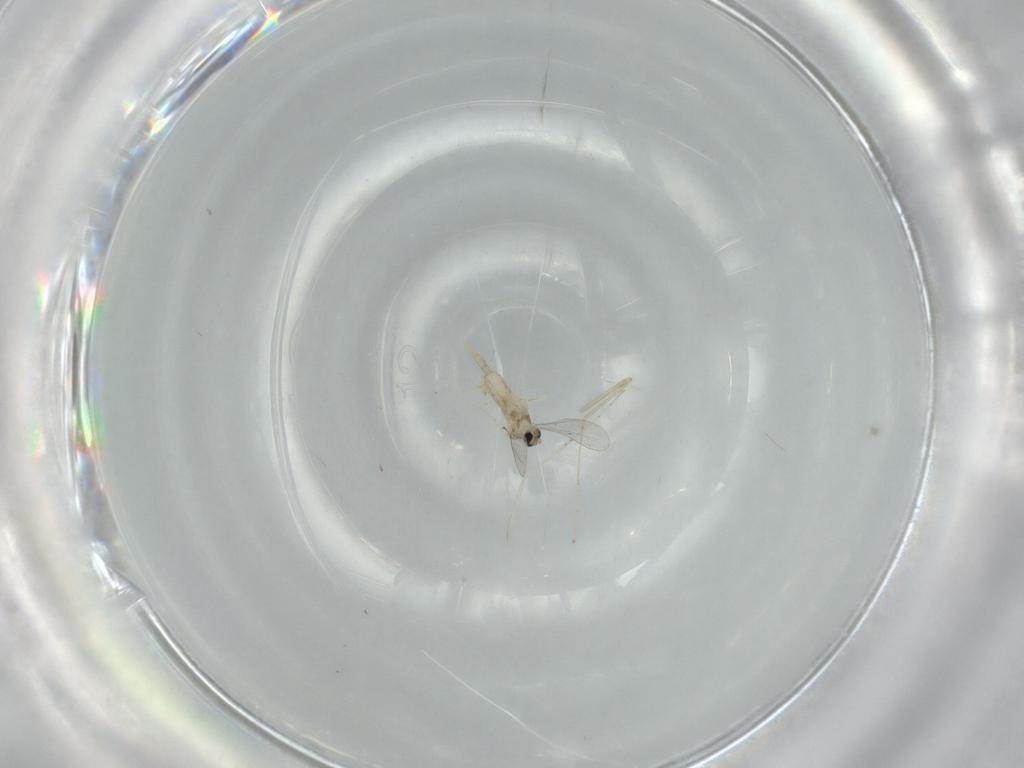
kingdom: Animalia
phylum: Arthropoda
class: Insecta
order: Diptera
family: Cecidomyiidae
